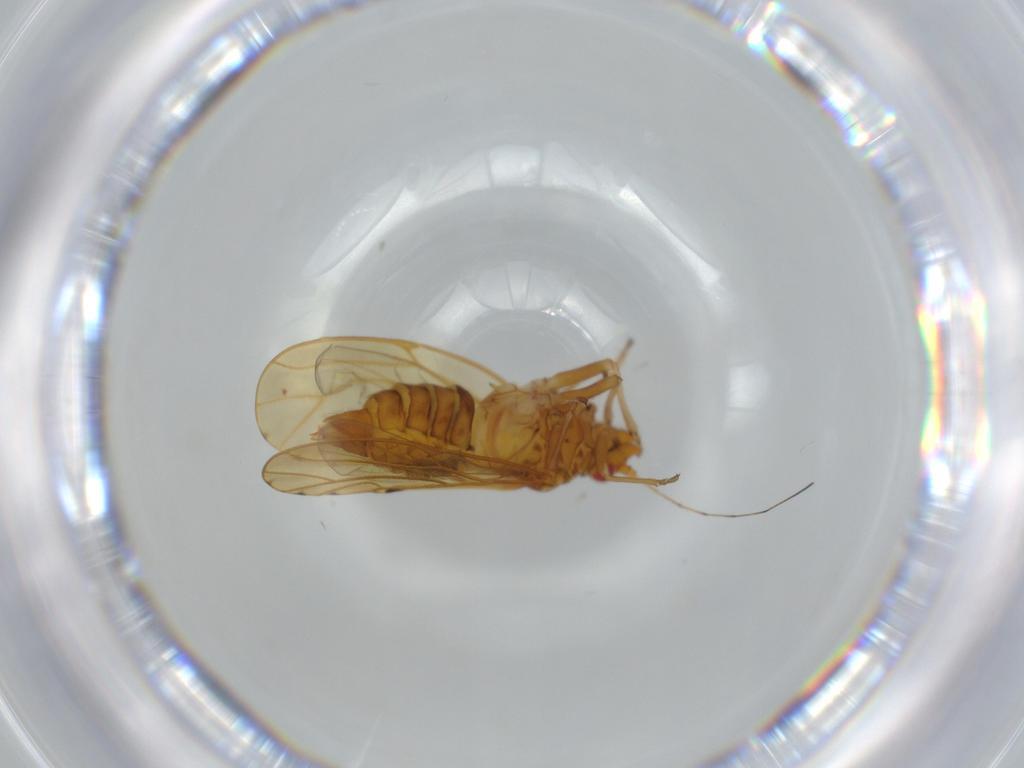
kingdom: Animalia
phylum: Arthropoda
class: Insecta
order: Hemiptera
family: Psylloidea_incertae_sedis
